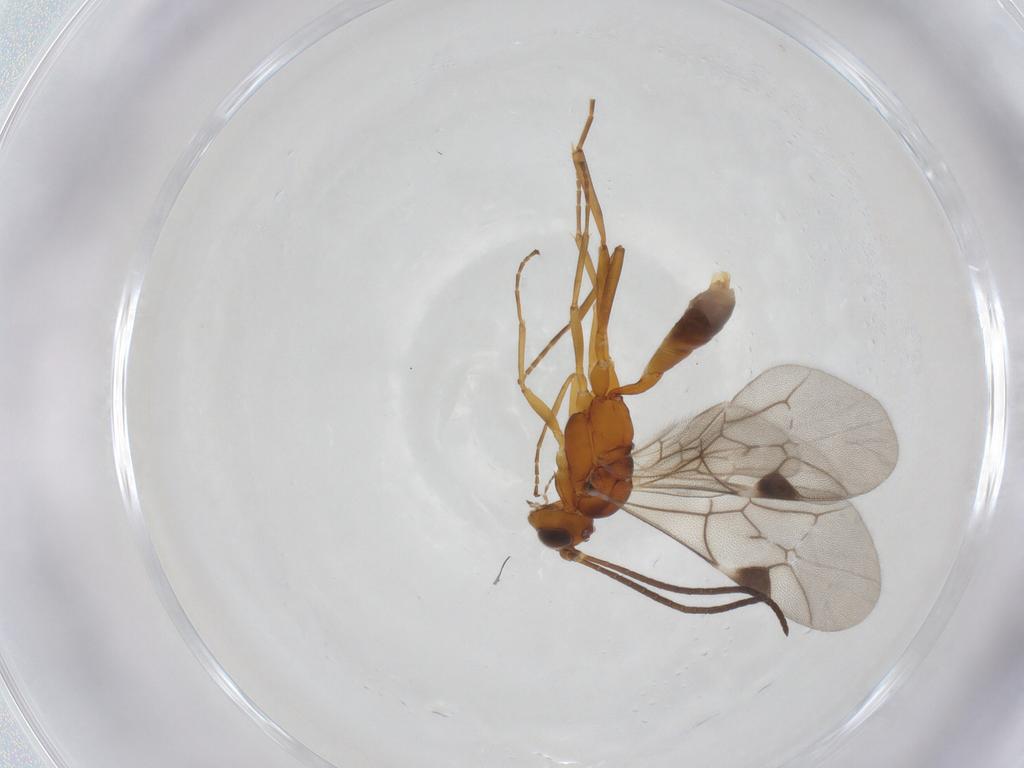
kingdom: Animalia
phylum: Arthropoda
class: Insecta
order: Hymenoptera
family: Ichneumonidae
